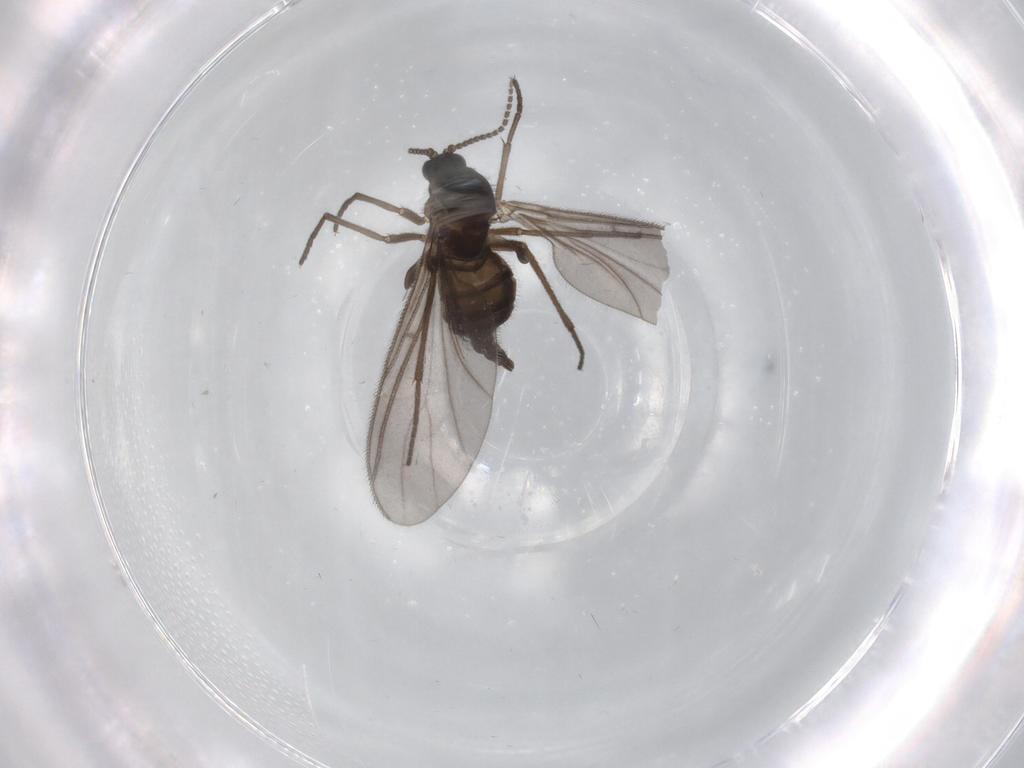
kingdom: Animalia
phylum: Arthropoda
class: Insecta
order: Diptera
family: Sciaridae
